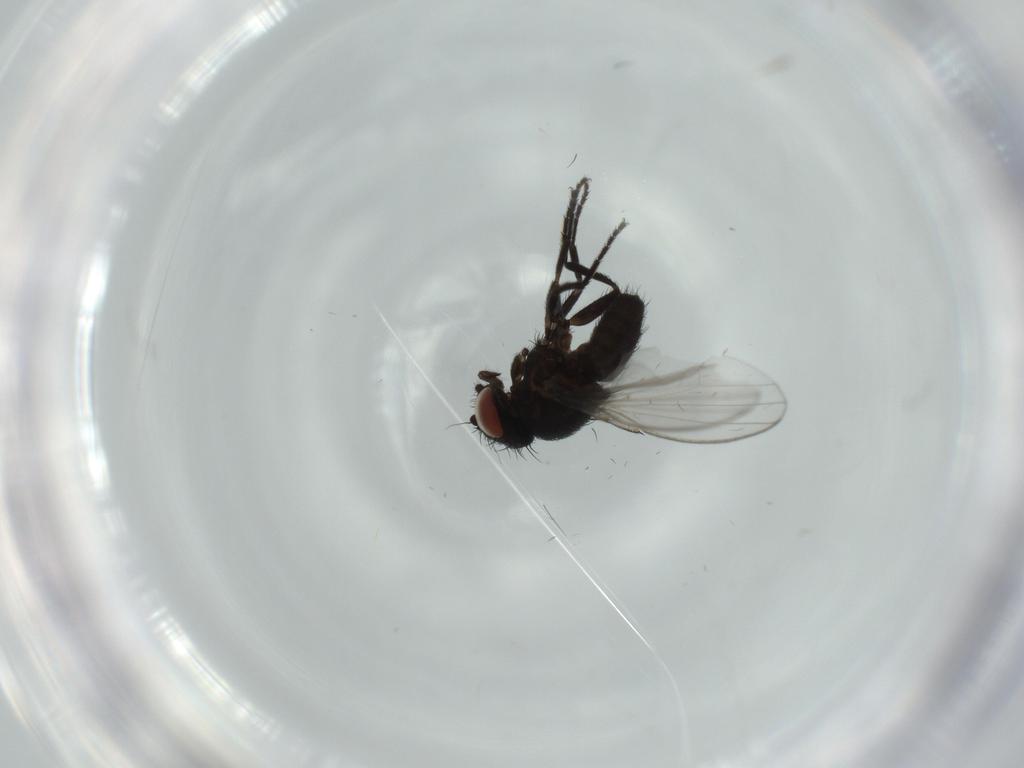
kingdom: Animalia
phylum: Arthropoda
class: Insecta
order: Diptera
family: Milichiidae
